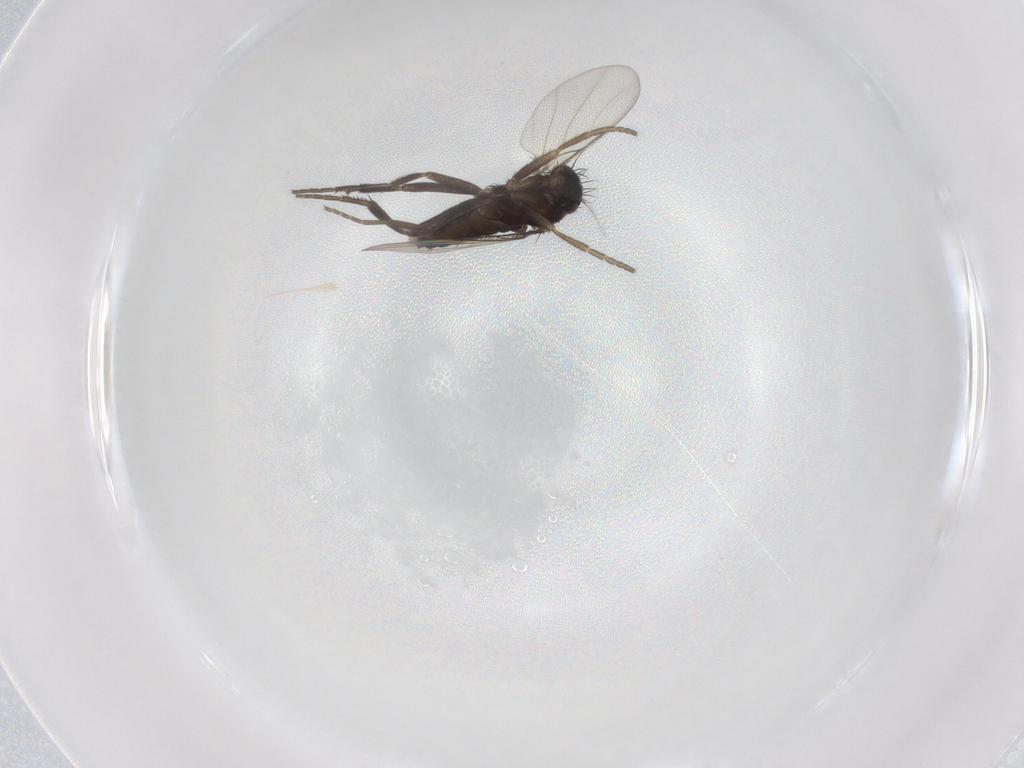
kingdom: Animalia
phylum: Arthropoda
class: Insecta
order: Diptera
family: Phoridae
